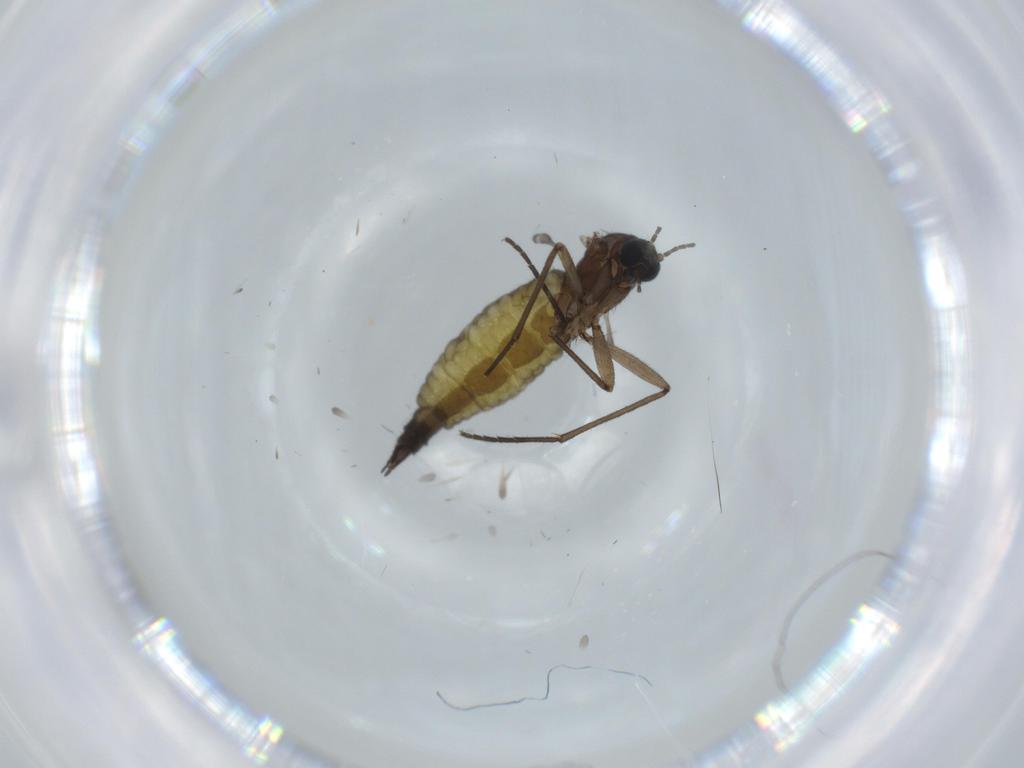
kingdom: Animalia
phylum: Arthropoda
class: Insecta
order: Diptera
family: Sciaridae
